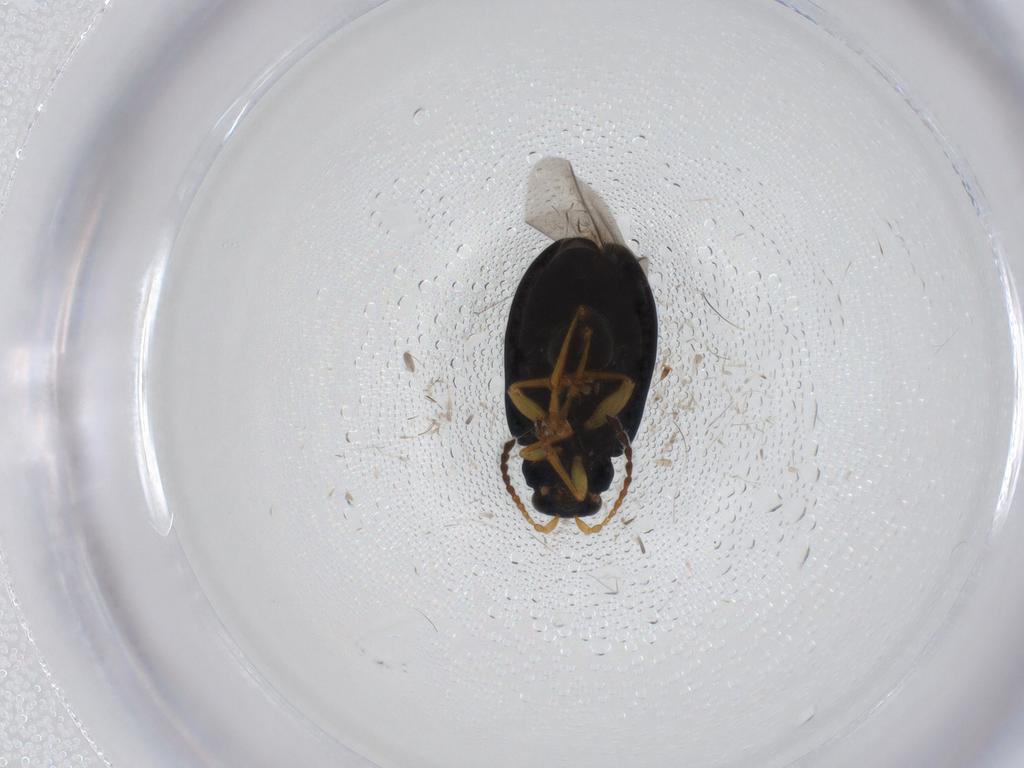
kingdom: Animalia
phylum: Arthropoda
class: Insecta
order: Coleoptera
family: Chrysomelidae
